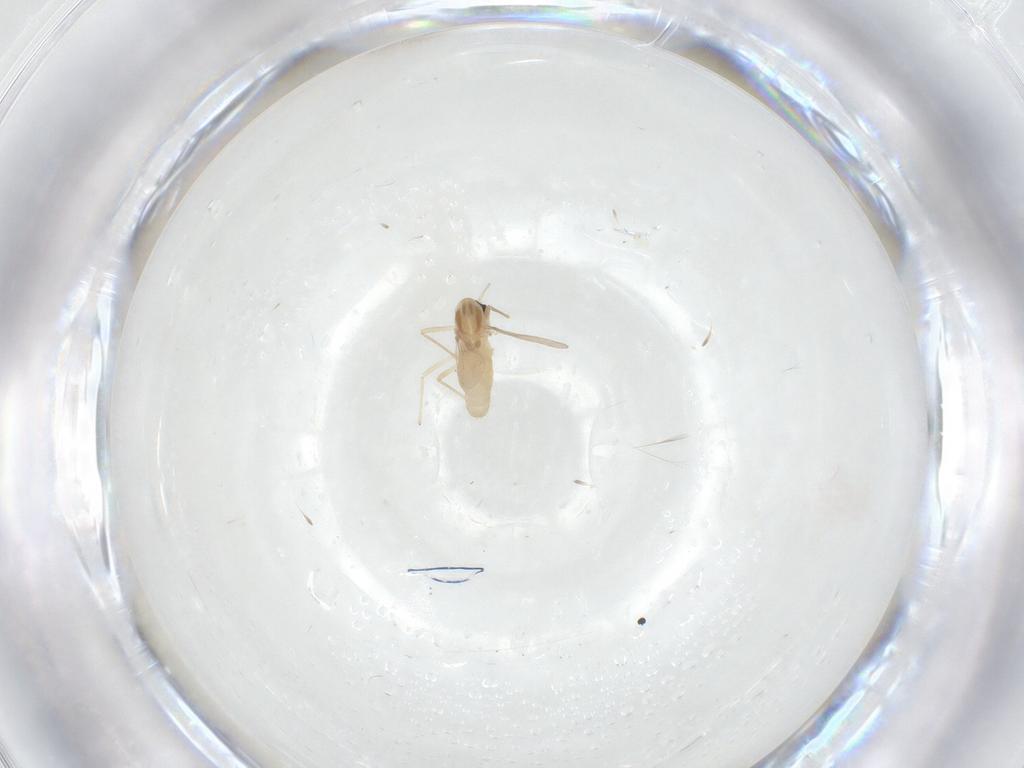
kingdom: Animalia
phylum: Arthropoda
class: Insecta
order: Diptera
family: Chironomidae
